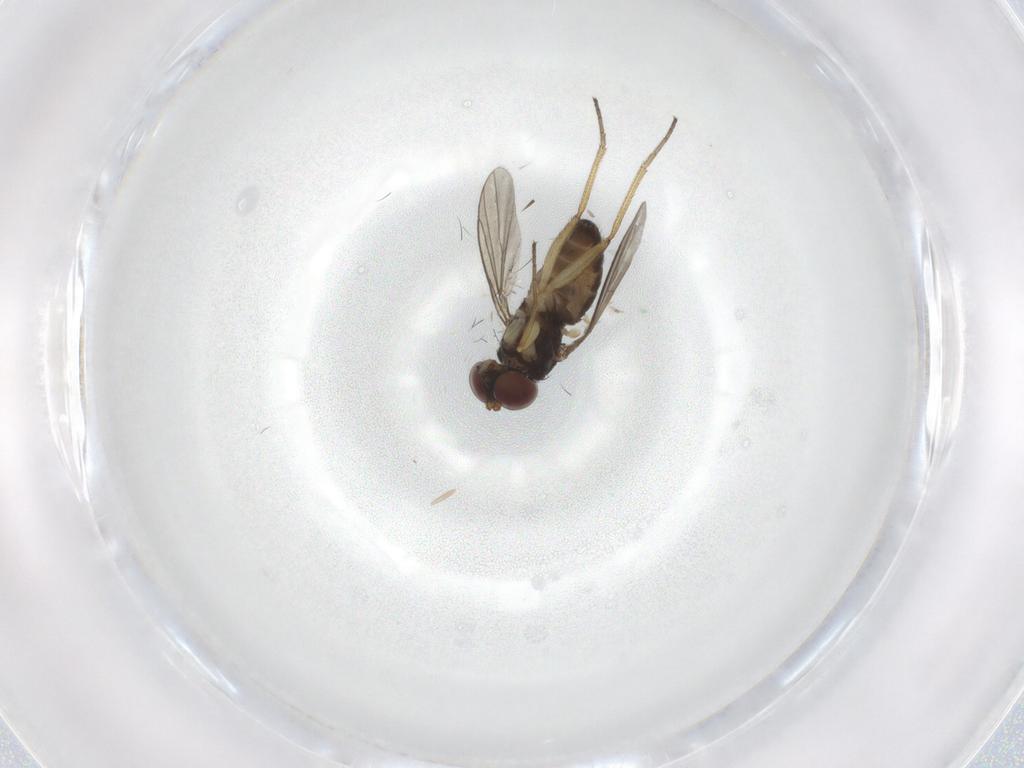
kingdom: Animalia
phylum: Arthropoda
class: Insecta
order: Diptera
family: Dolichopodidae
